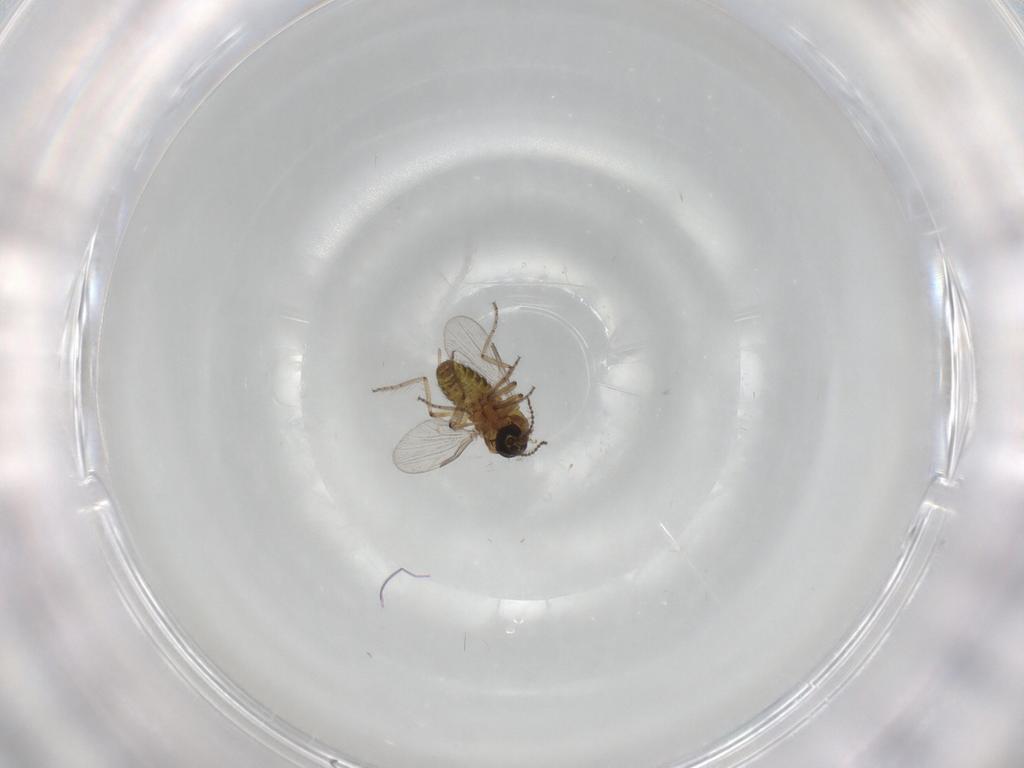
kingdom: Animalia
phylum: Arthropoda
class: Insecta
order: Diptera
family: Ceratopogonidae
